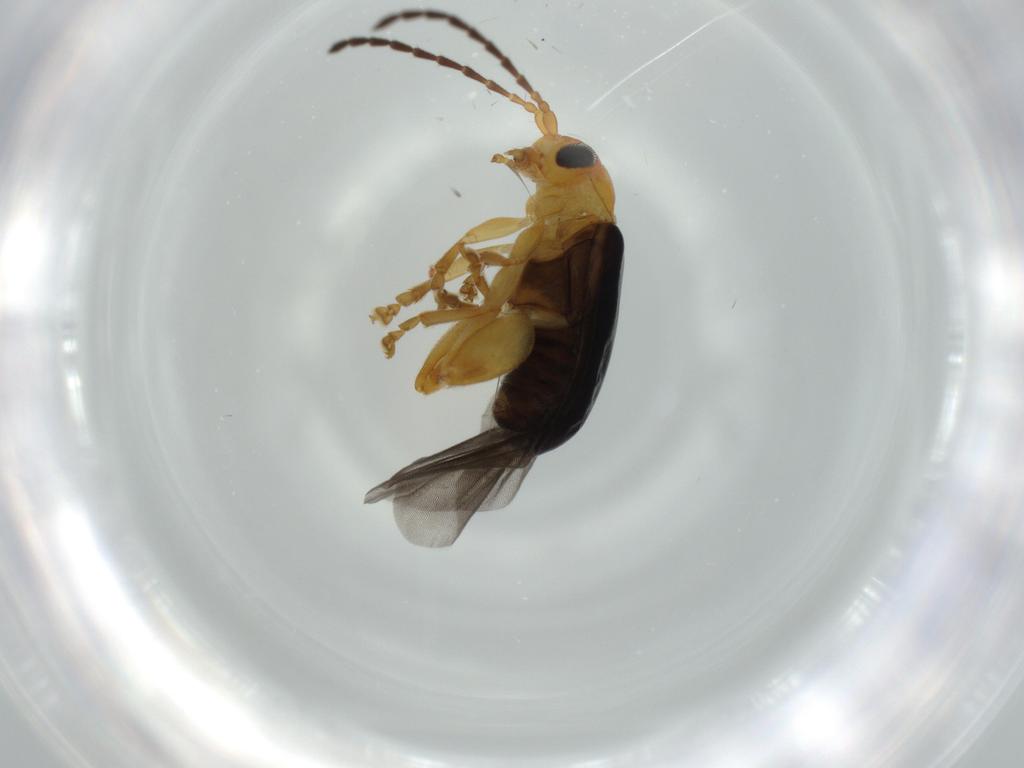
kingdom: Animalia
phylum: Arthropoda
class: Insecta
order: Coleoptera
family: Chrysomelidae
